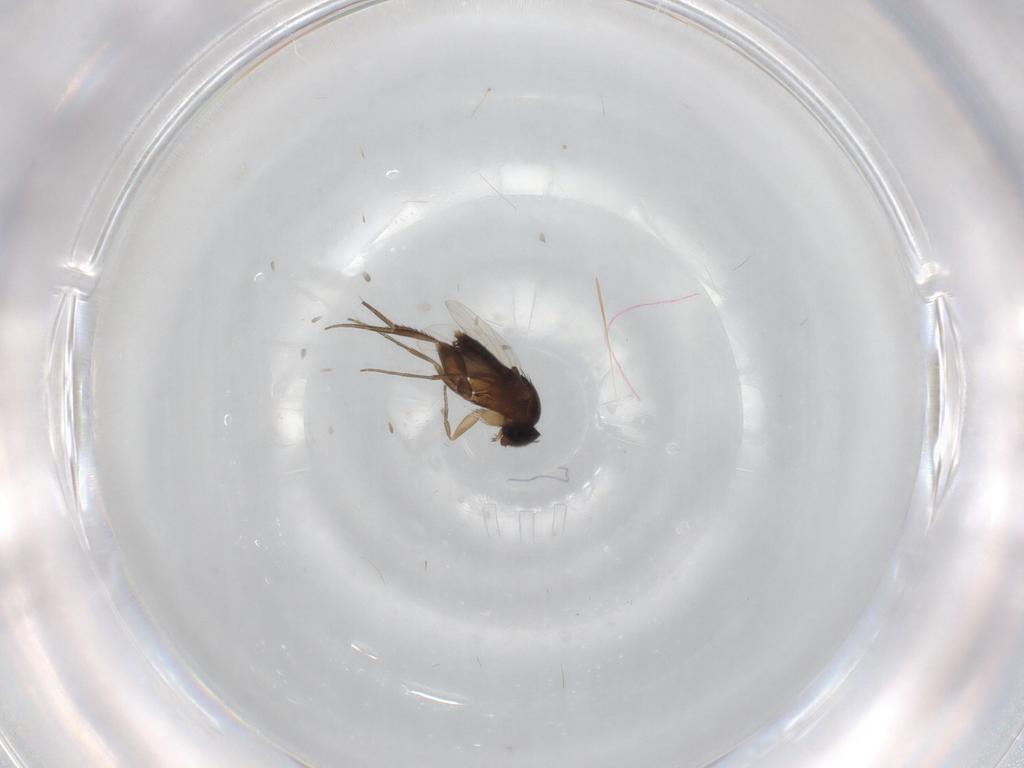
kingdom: Animalia
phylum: Arthropoda
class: Insecta
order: Diptera
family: Phoridae
